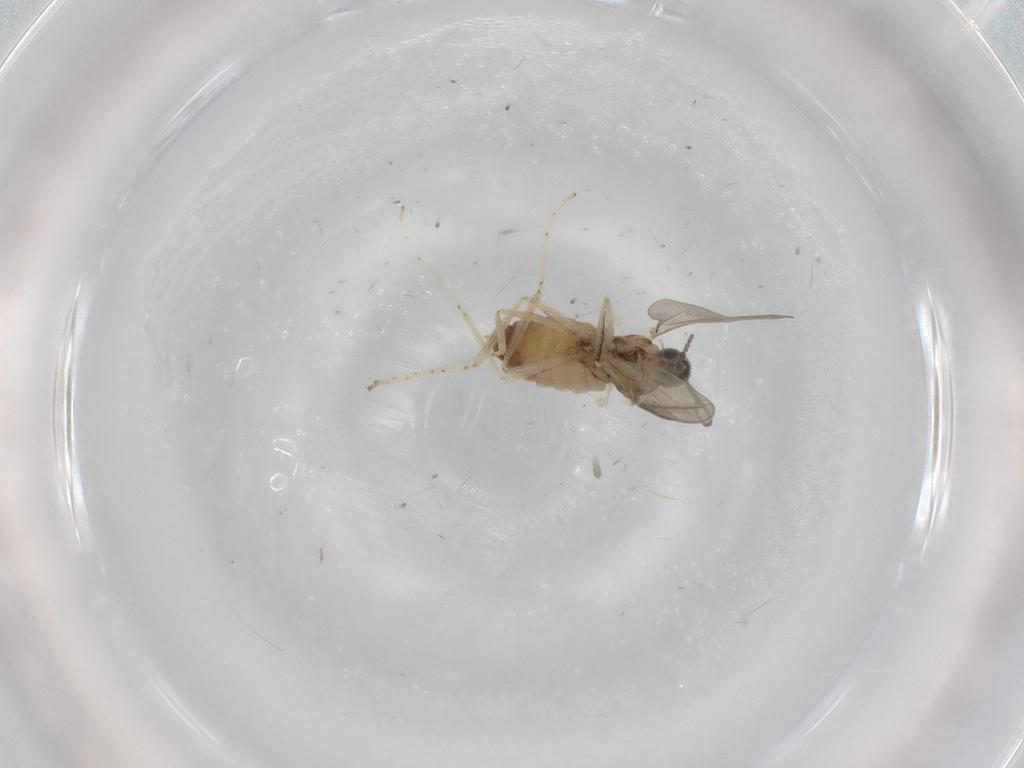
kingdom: Animalia
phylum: Arthropoda
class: Insecta
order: Diptera
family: Cecidomyiidae
